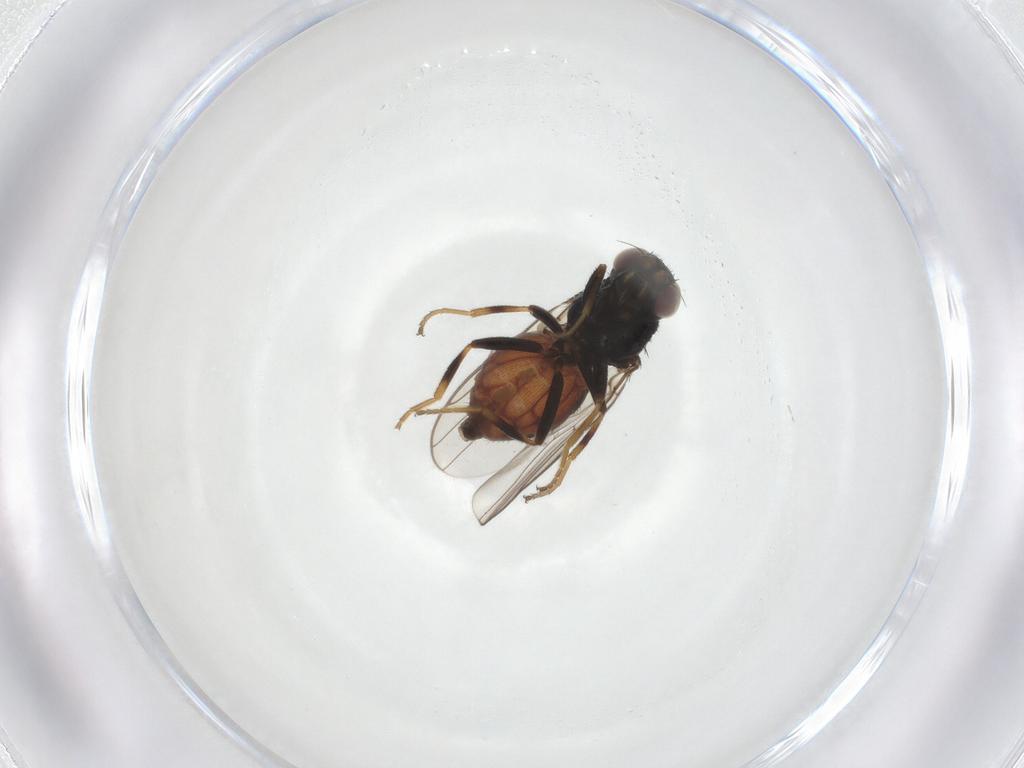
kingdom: Animalia
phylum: Arthropoda
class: Insecta
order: Diptera
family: Chloropidae
